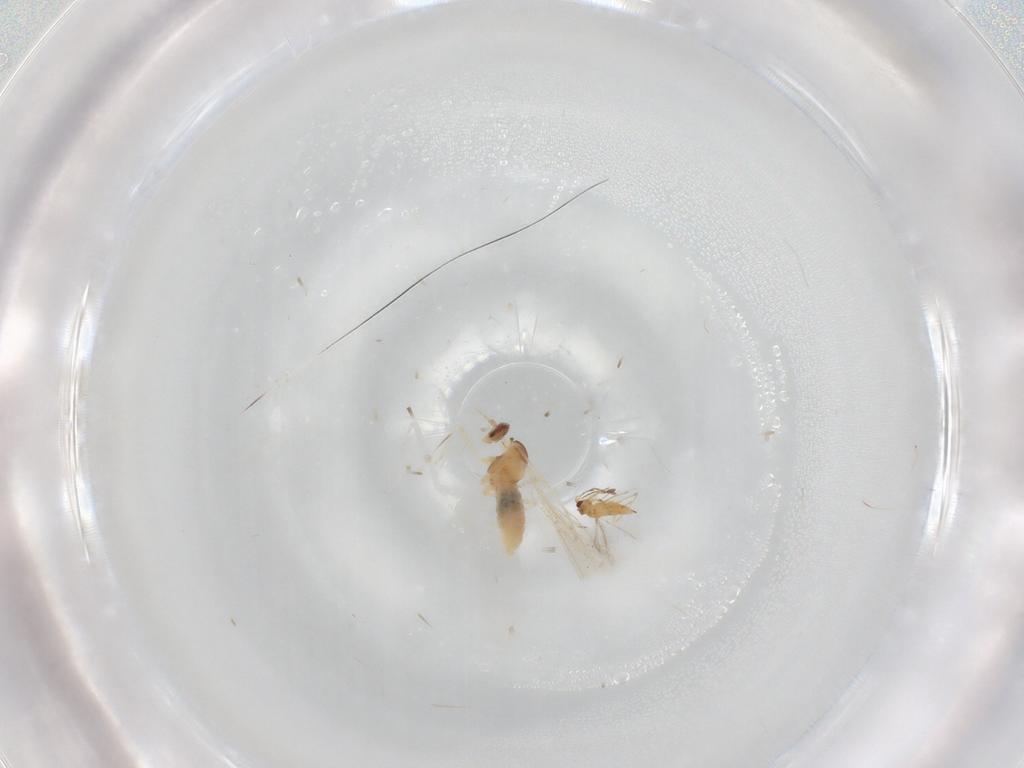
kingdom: Animalia
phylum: Arthropoda
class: Insecta
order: Diptera
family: Cecidomyiidae
